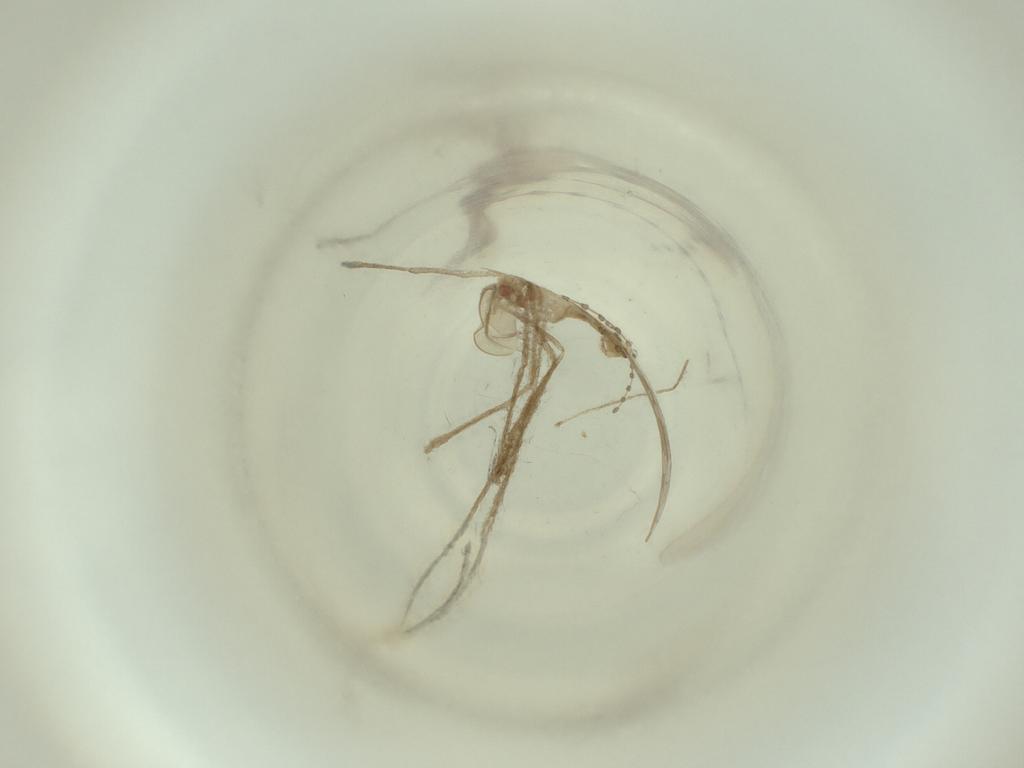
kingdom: Animalia
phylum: Arthropoda
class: Insecta
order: Diptera
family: Cecidomyiidae
